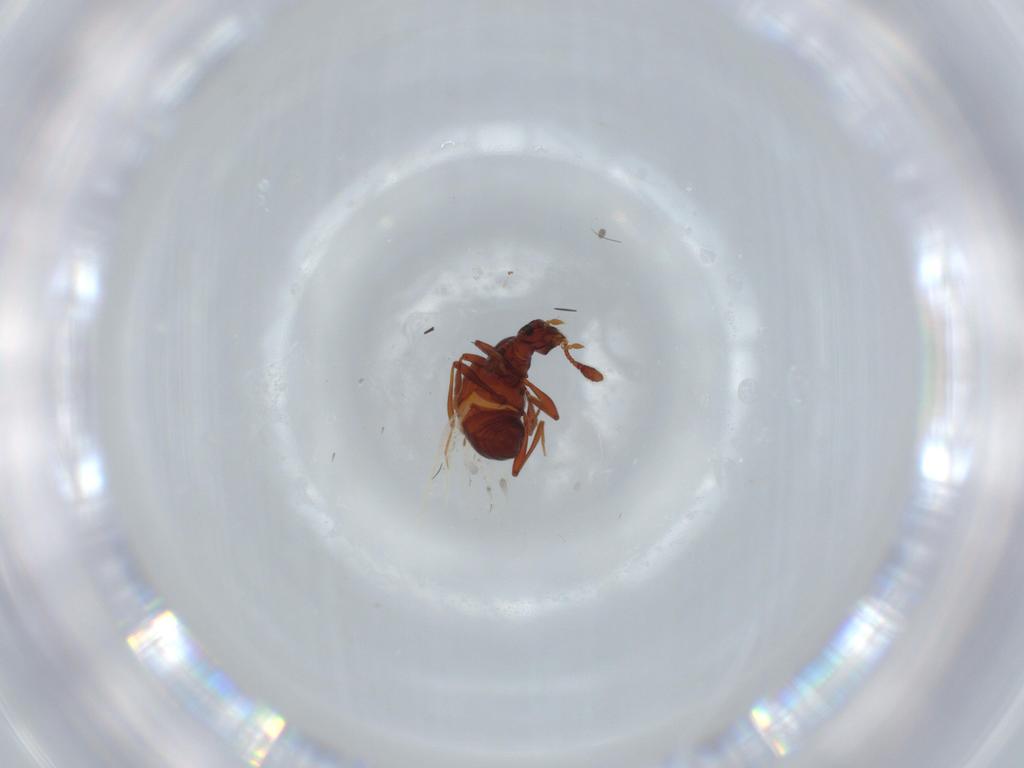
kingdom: Animalia
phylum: Arthropoda
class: Insecta
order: Coleoptera
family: Staphylinidae
